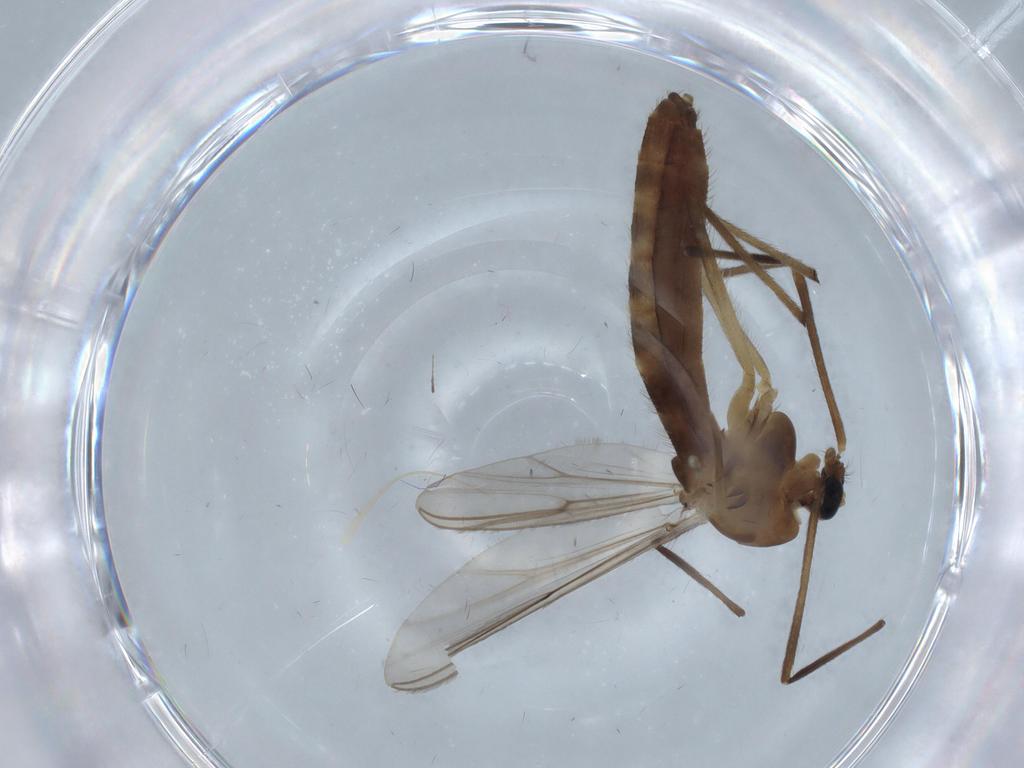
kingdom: Animalia
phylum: Arthropoda
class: Insecta
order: Diptera
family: Chironomidae
